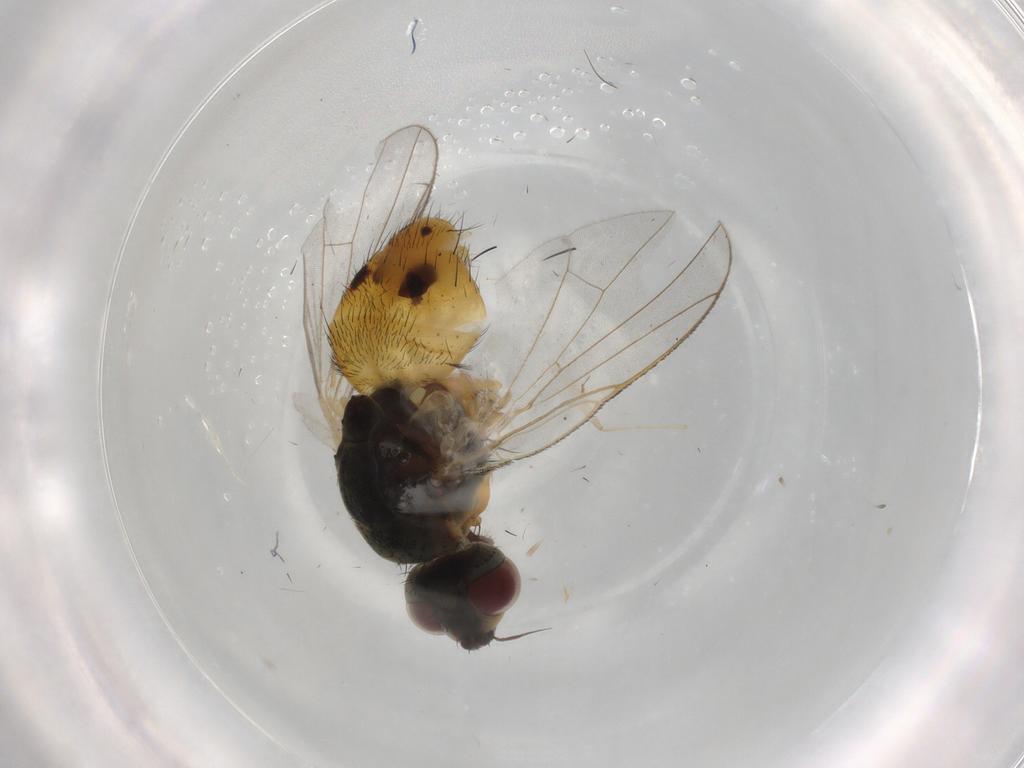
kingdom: Animalia
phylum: Arthropoda
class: Insecta
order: Diptera
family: Muscidae
